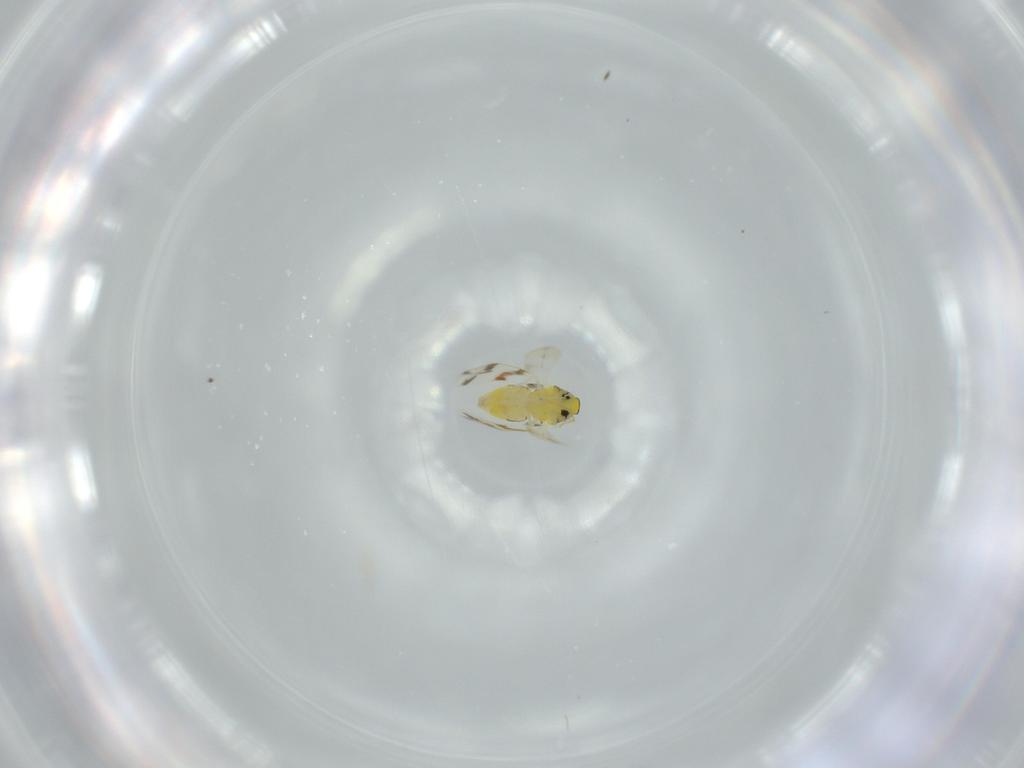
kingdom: Animalia
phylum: Arthropoda
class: Insecta
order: Hemiptera
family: Aleyrodidae
